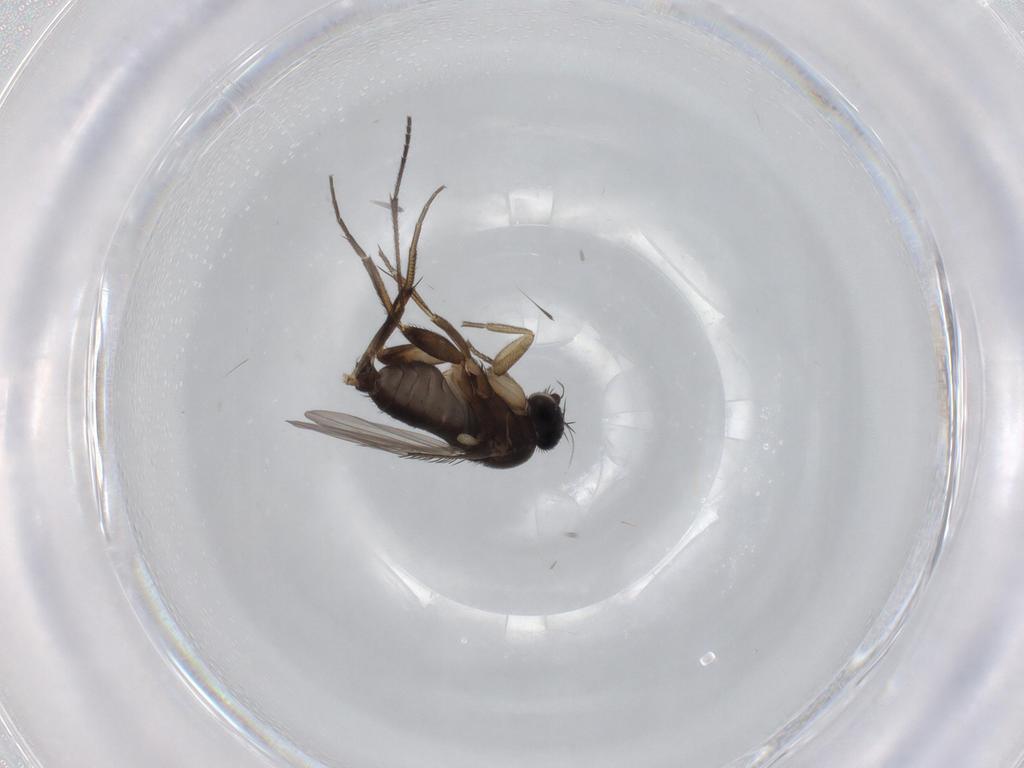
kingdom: Animalia
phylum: Arthropoda
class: Insecta
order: Diptera
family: Phoridae
